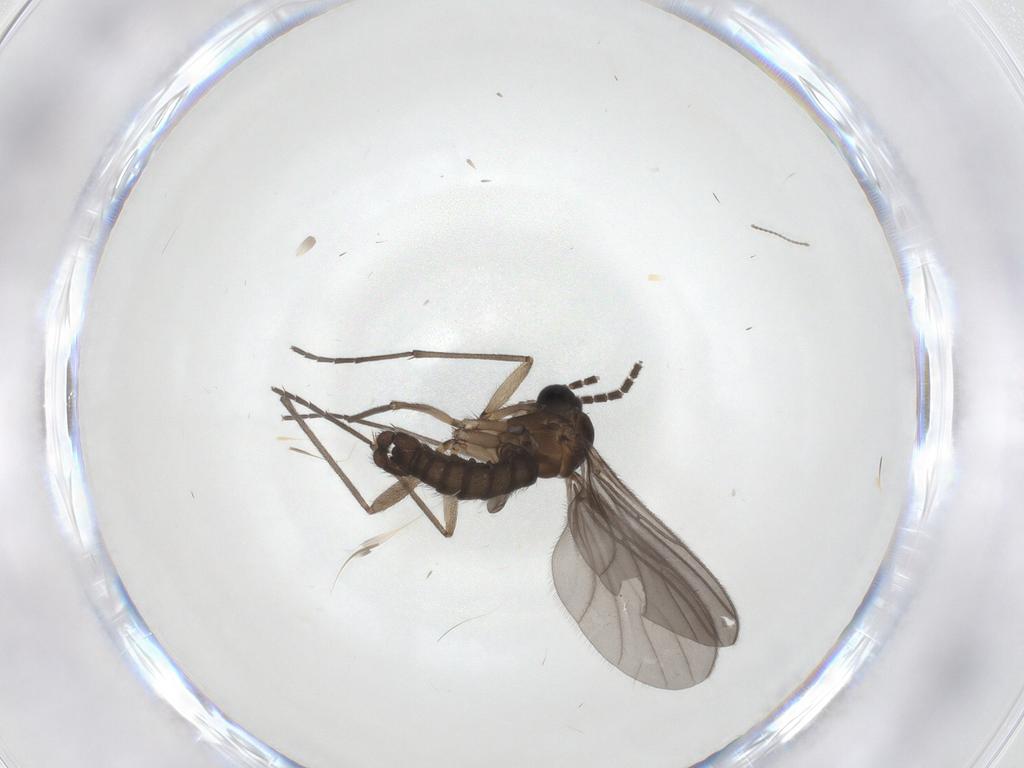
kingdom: Animalia
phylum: Arthropoda
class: Insecta
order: Diptera
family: Sciaridae
